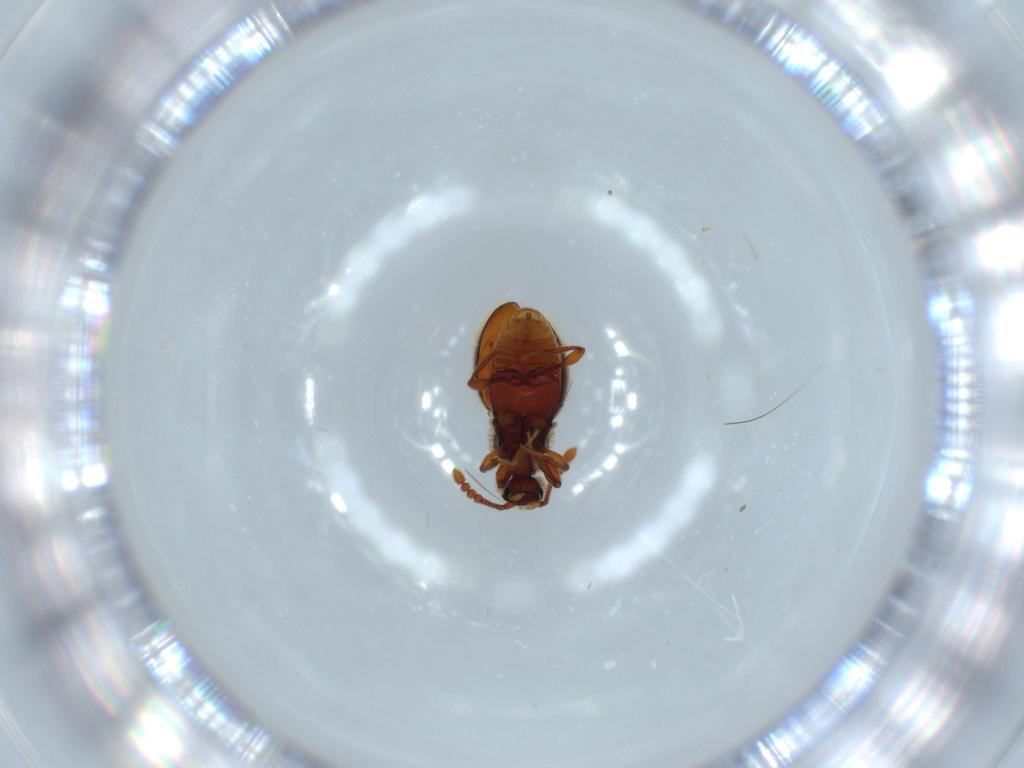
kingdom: Animalia
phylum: Arthropoda
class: Insecta
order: Coleoptera
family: Staphylinidae
